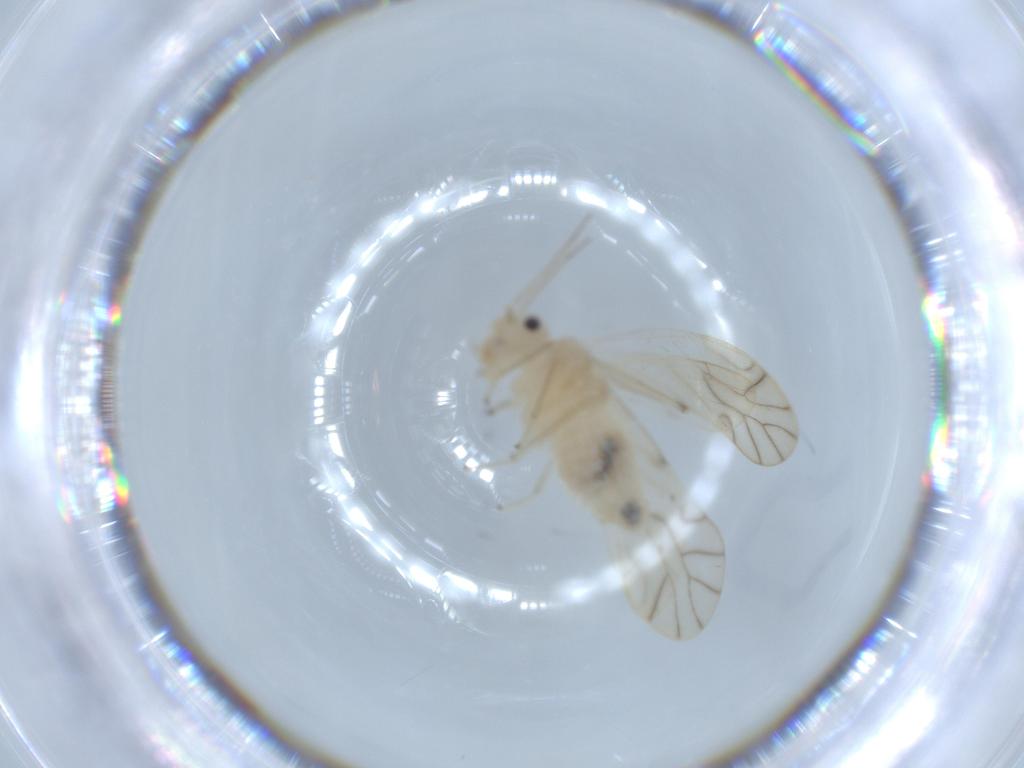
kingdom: Animalia
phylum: Arthropoda
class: Insecta
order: Psocodea
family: Caeciliusidae
